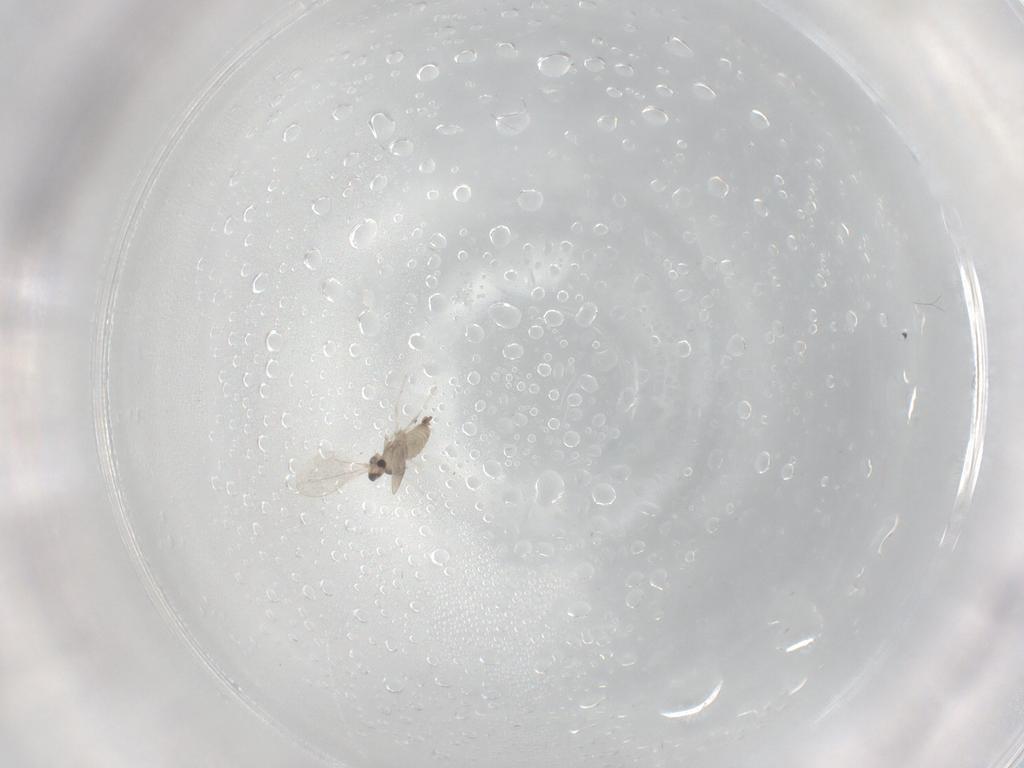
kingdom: Animalia
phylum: Arthropoda
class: Insecta
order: Diptera
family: Cecidomyiidae
